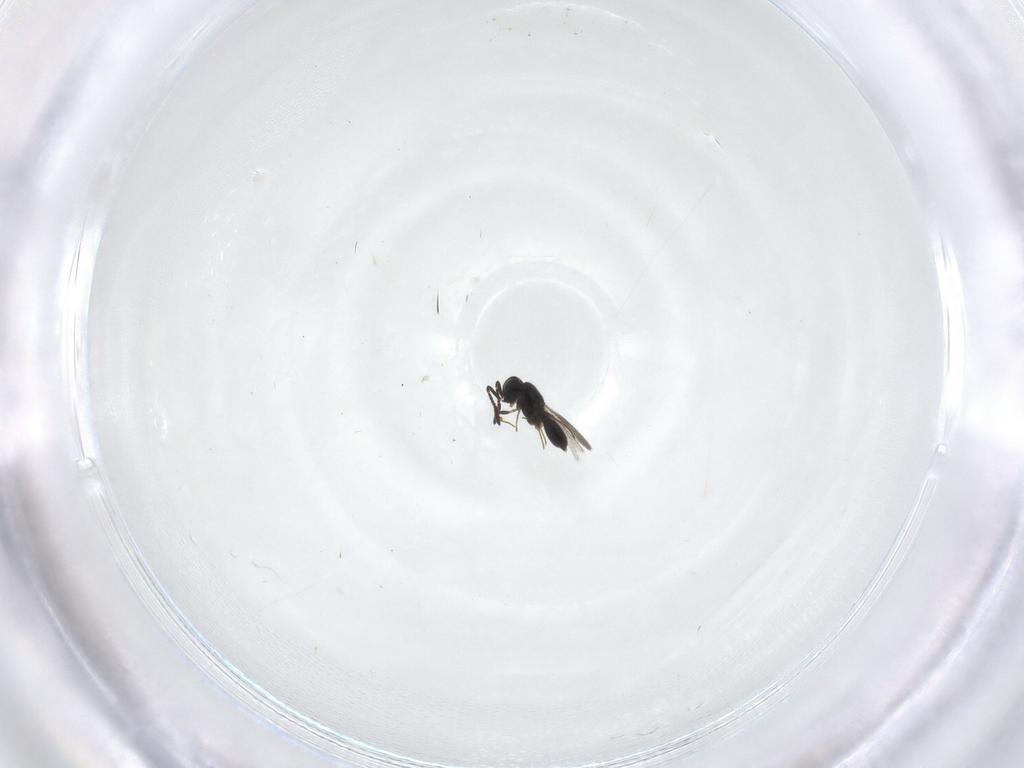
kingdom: Animalia
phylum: Arthropoda
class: Insecta
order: Hymenoptera
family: Scelionidae
